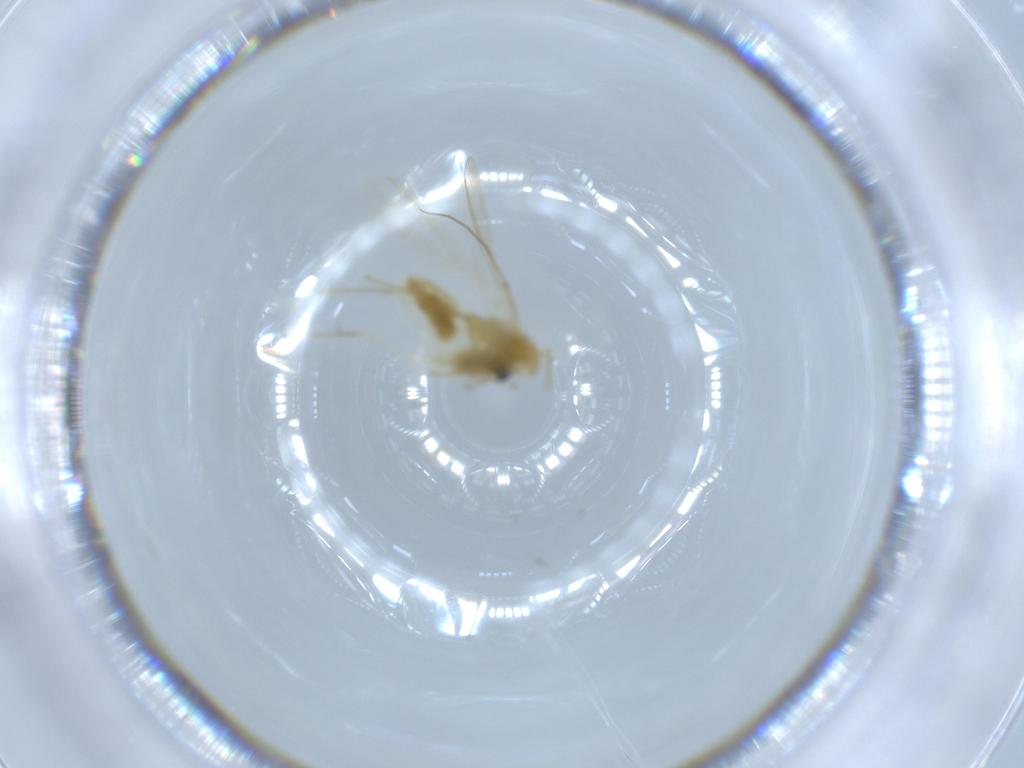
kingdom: Animalia
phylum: Arthropoda
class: Insecta
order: Diptera
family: Chironomidae
